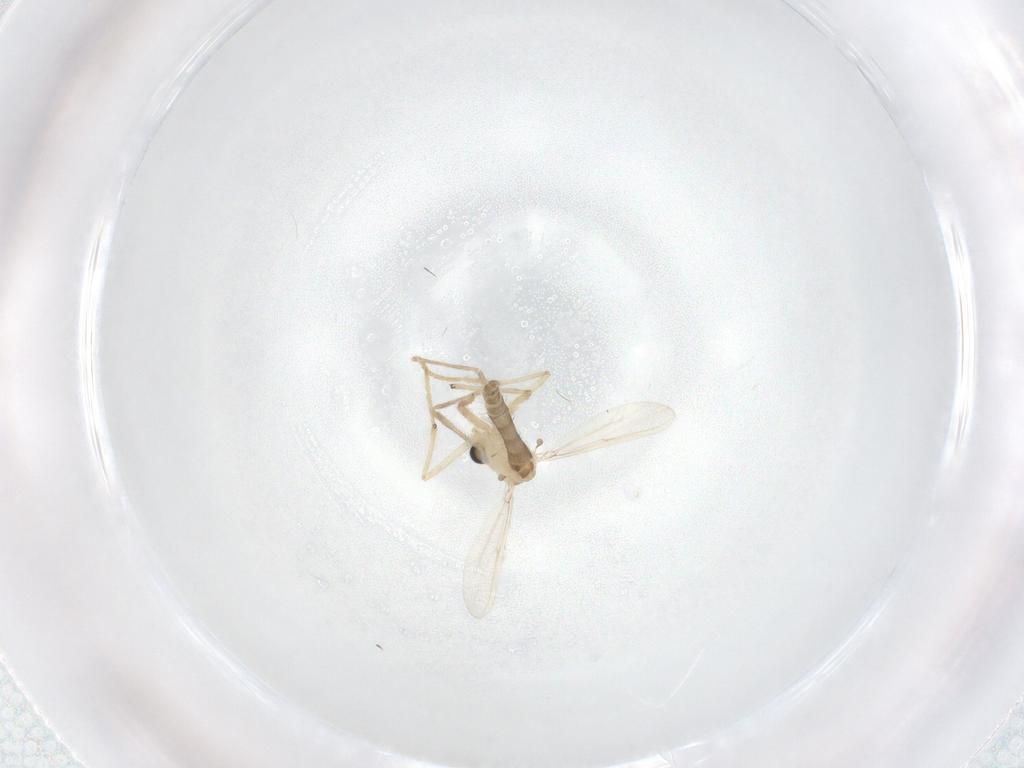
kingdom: Animalia
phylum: Arthropoda
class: Insecta
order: Diptera
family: Chironomidae
